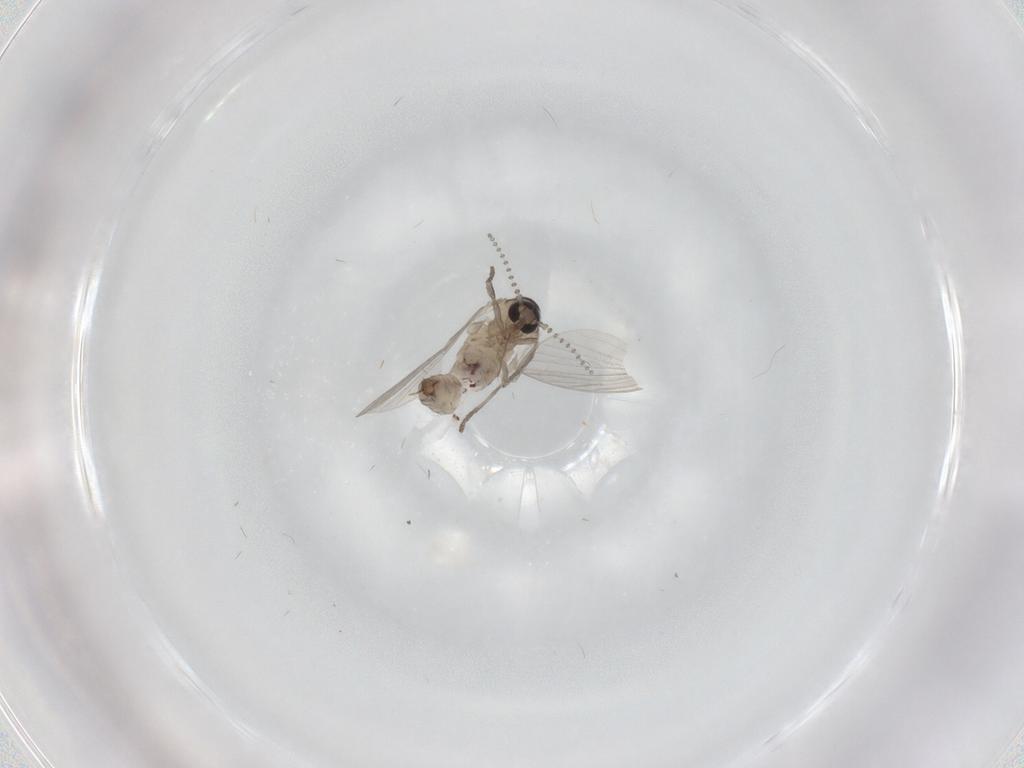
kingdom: Animalia
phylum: Arthropoda
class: Insecta
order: Diptera
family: Psychodidae
